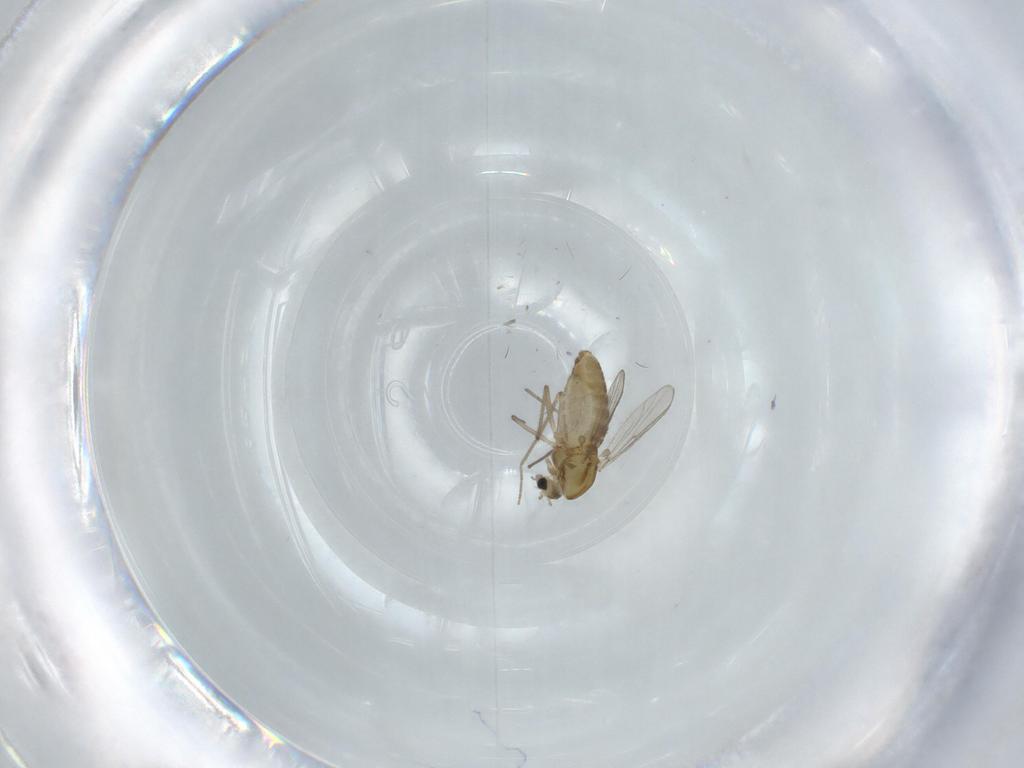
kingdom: Animalia
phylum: Arthropoda
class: Insecta
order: Diptera
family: Chironomidae
